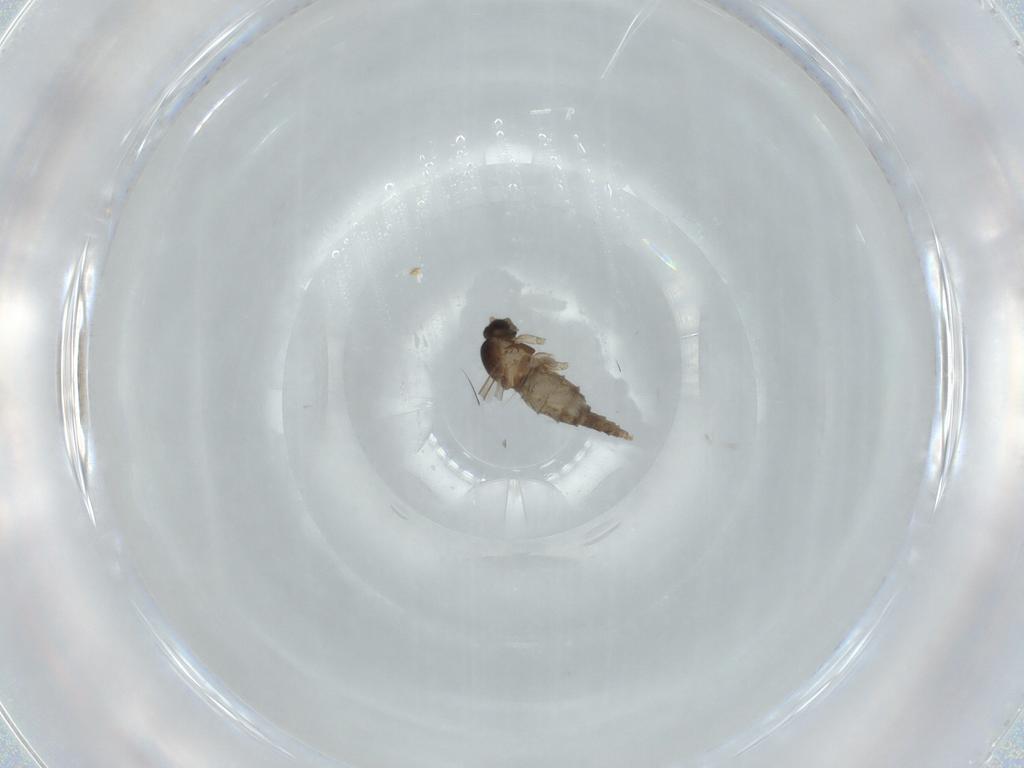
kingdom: Animalia
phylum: Arthropoda
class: Insecta
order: Diptera
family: Cecidomyiidae
